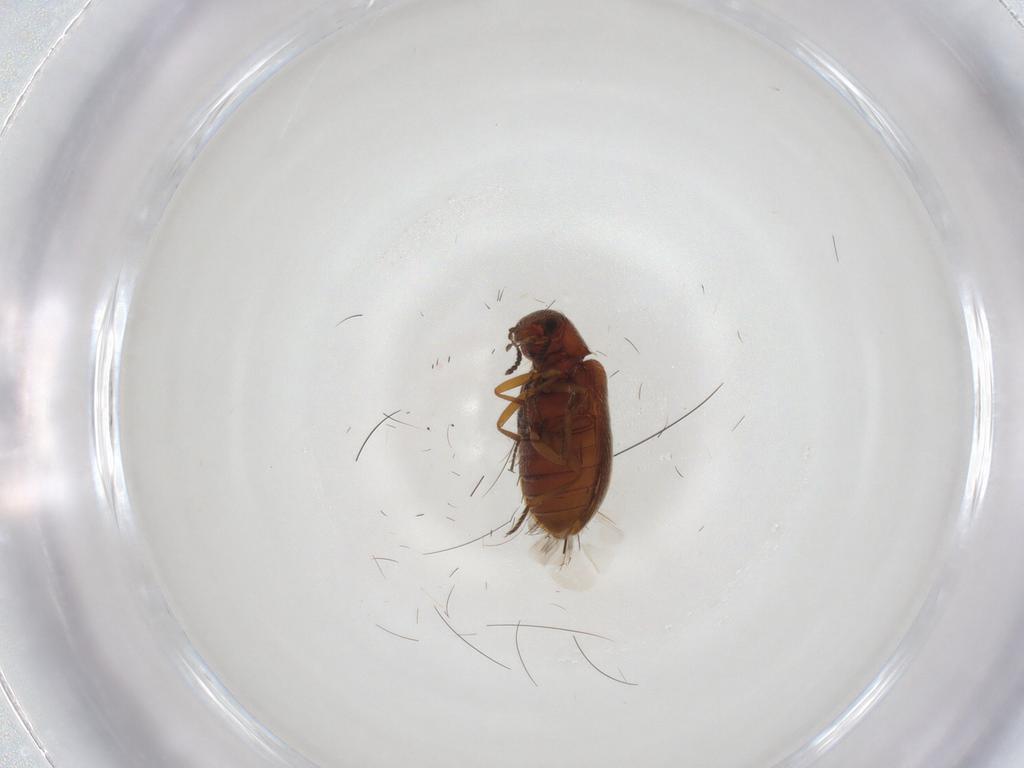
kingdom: Animalia
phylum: Arthropoda
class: Insecta
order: Coleoptera
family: Rhadalidae
